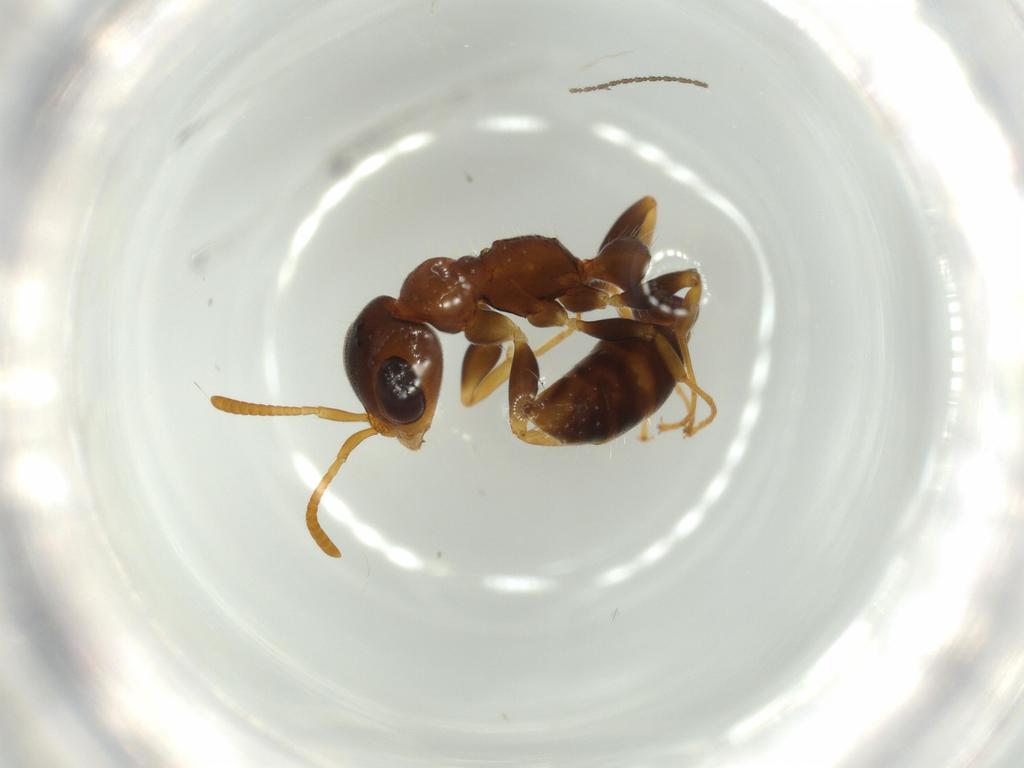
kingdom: Animalia
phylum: Arthropoda
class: Insecta
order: Hymenoptera
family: Formicidae
